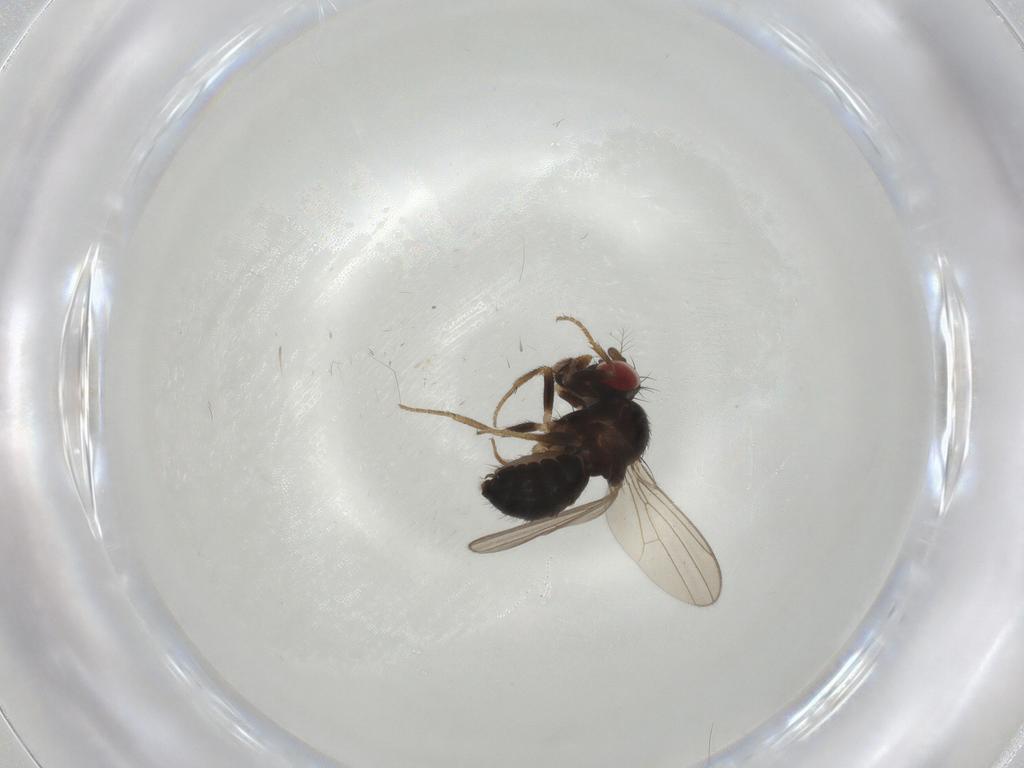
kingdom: Animalia
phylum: Arthropoda
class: Insecta
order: Diptera
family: Drosophilidae
